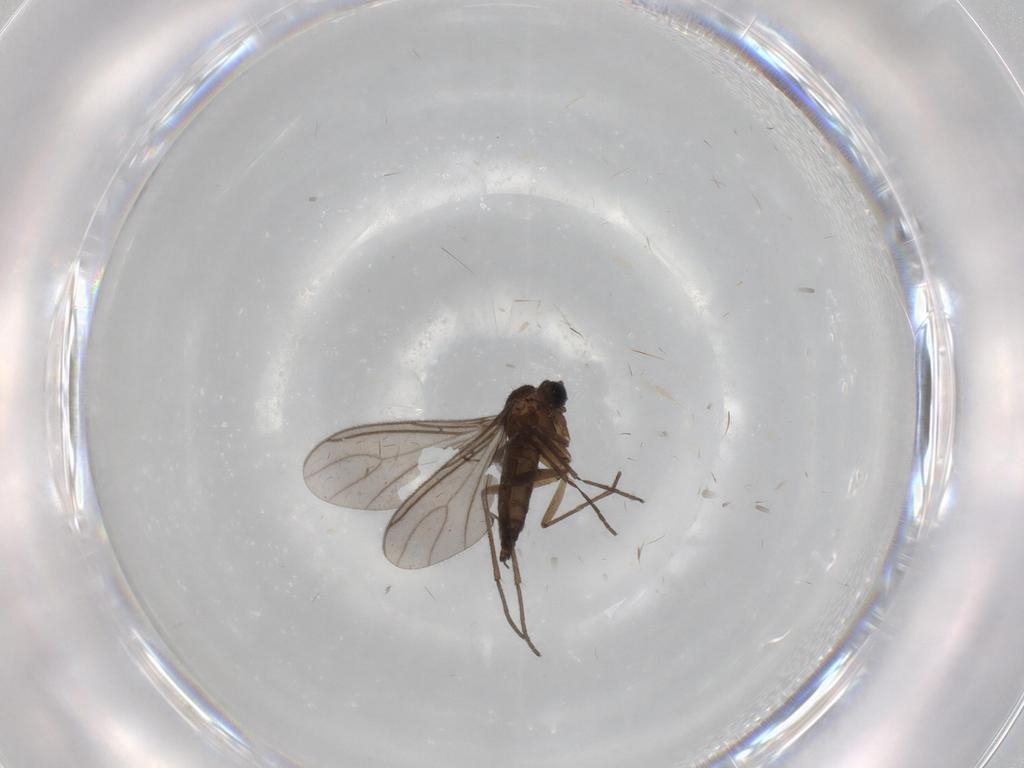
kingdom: Animalia
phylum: Arthropoda
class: Insecta
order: Diptera
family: Sciaridae
